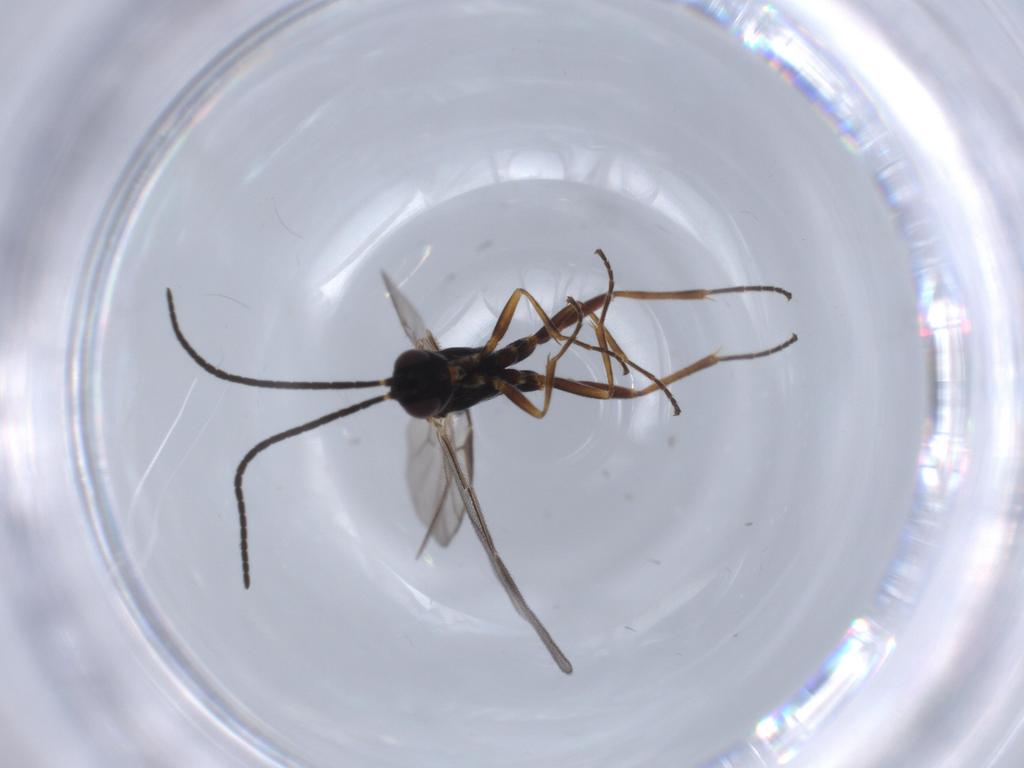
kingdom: Animalia
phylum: Arthropoda
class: Insecta
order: Hymenoptera
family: Ichneumonidae
